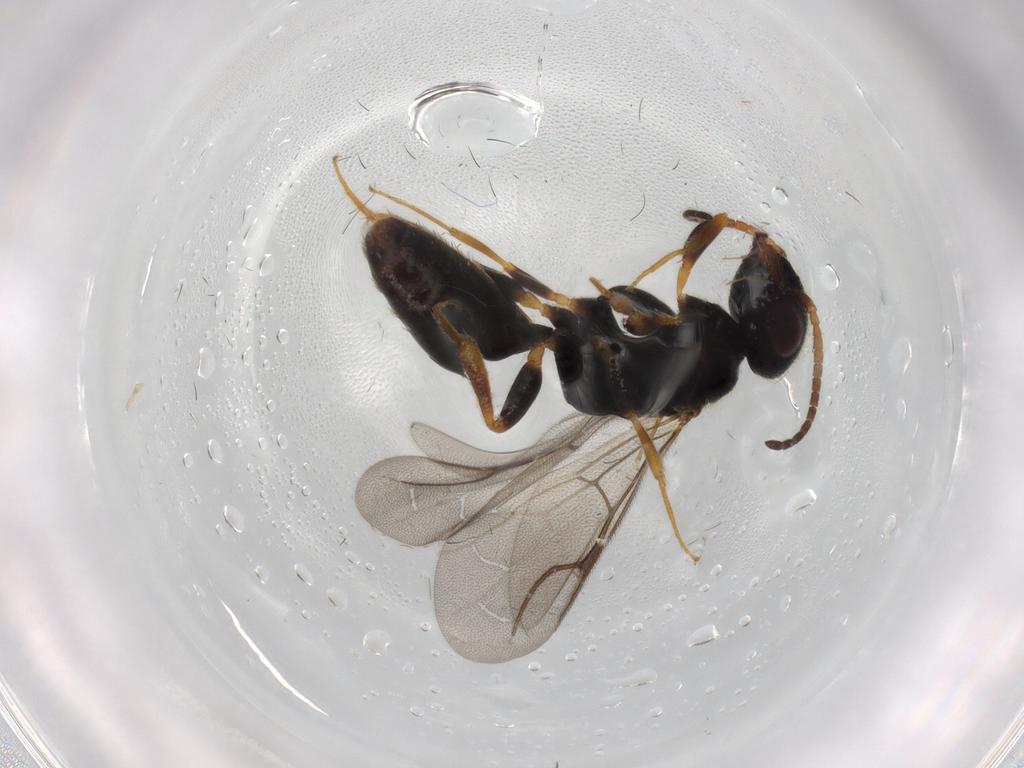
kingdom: Animalia
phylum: Arthropoda
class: Insecta
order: Hymenoptera
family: Bethylidae
